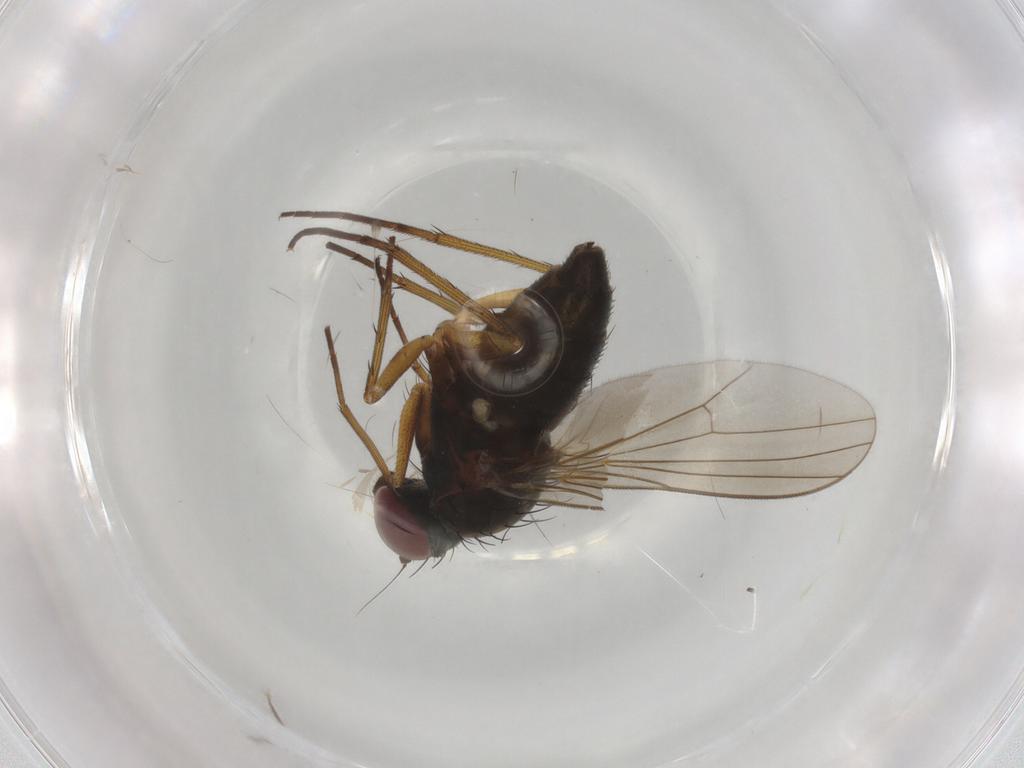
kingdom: Animalia
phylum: Arthropoda
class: Insecta
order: Diptera
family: Dolichopodidae
